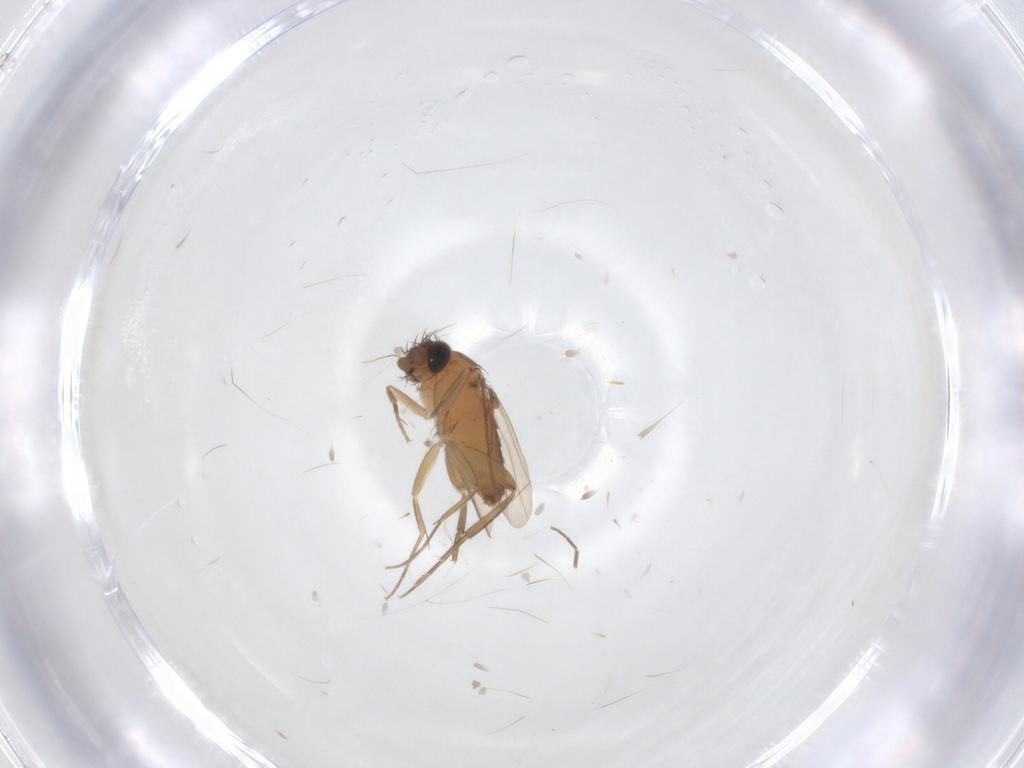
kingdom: Animalia
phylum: Arthropoda
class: Insecta
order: Diptera
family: Phoridae
